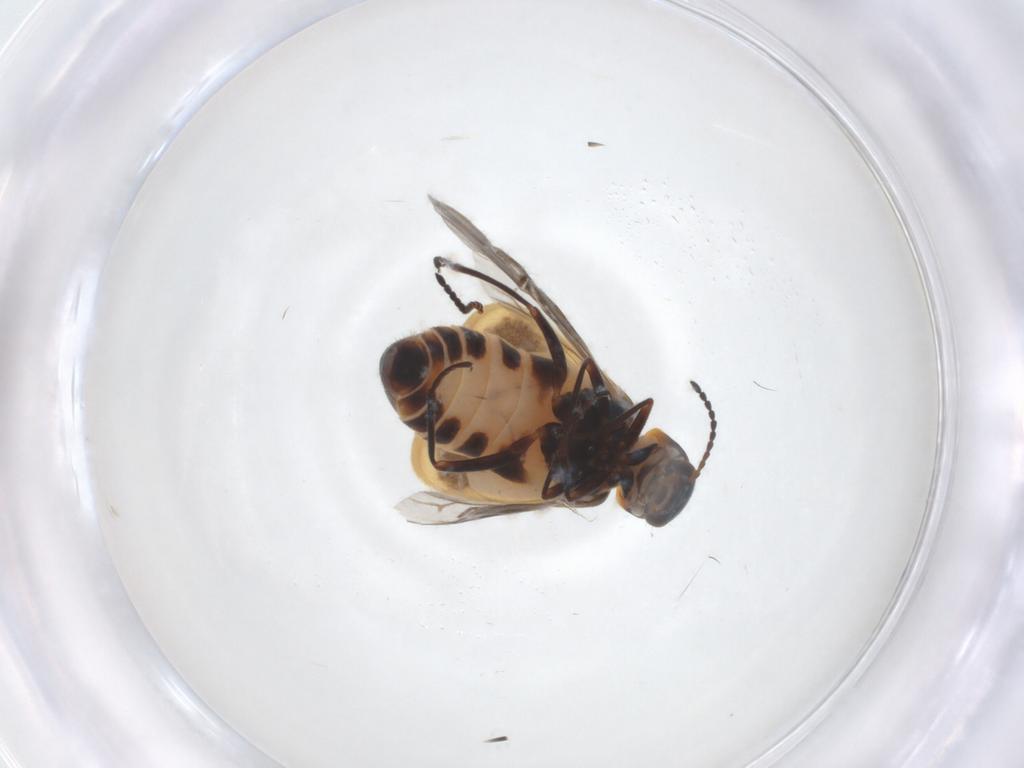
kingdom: Animalia
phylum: Arthropoda
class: Insecta
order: Coleoptera
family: Melyridae
